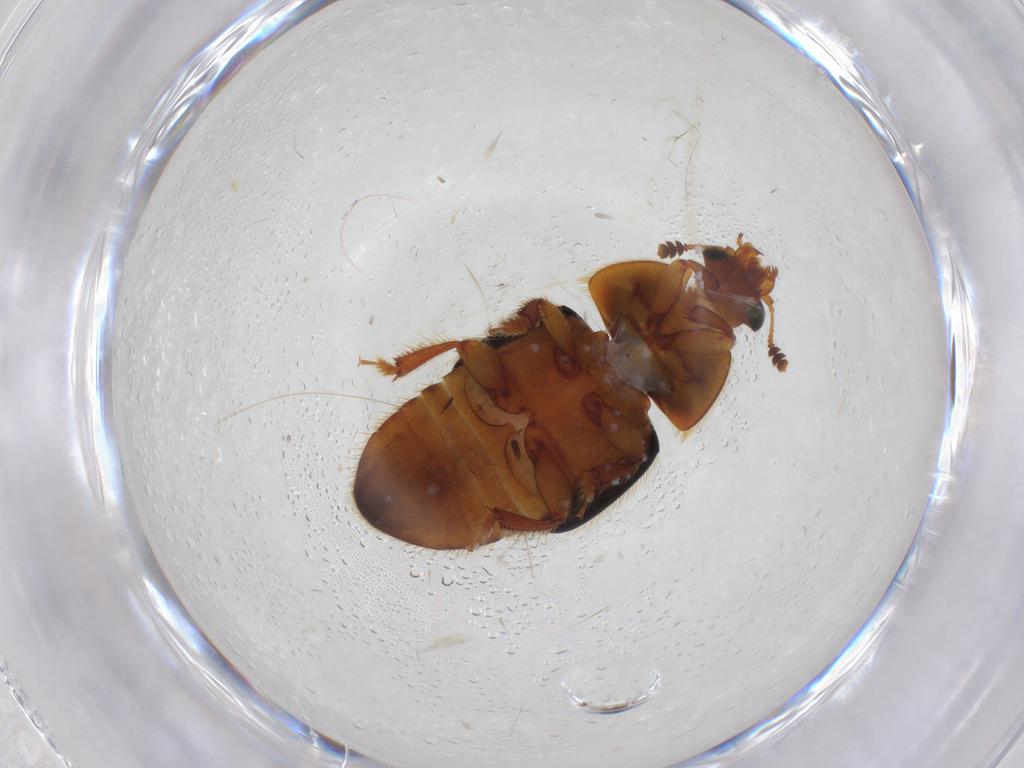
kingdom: Animalia
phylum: Arthropoda
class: Insecta
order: Coleoptera
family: Nitidulidae
